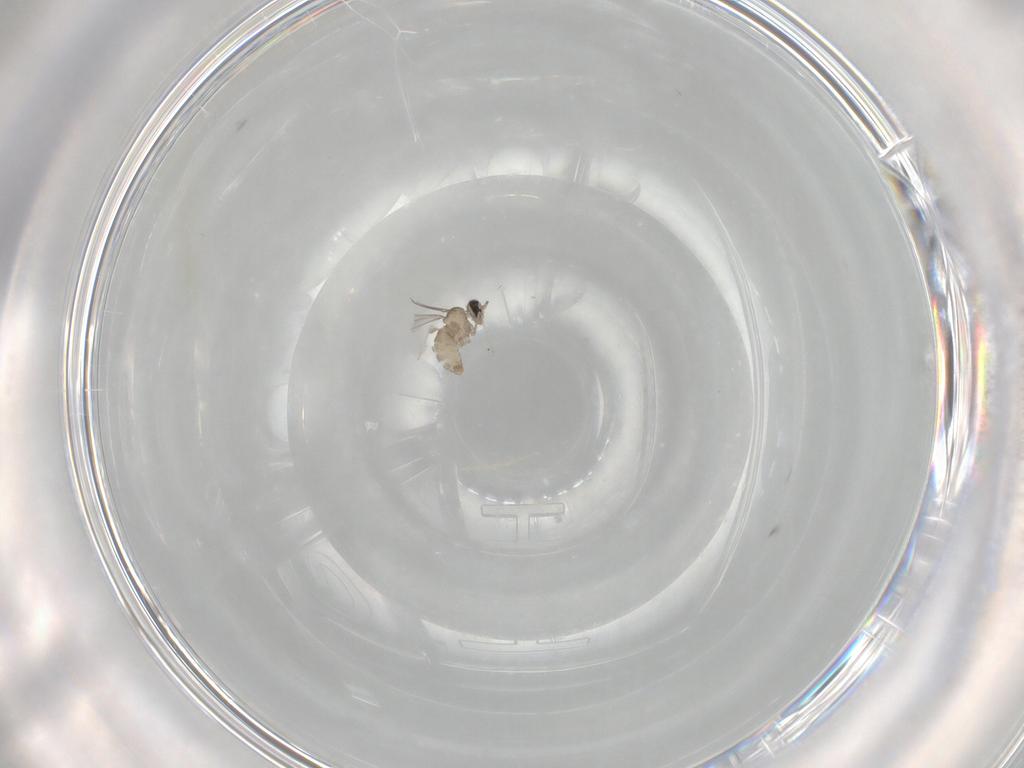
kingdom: Animalia
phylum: Arthropoda
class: Insecta
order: Diptera
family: Cecidomyiidae
